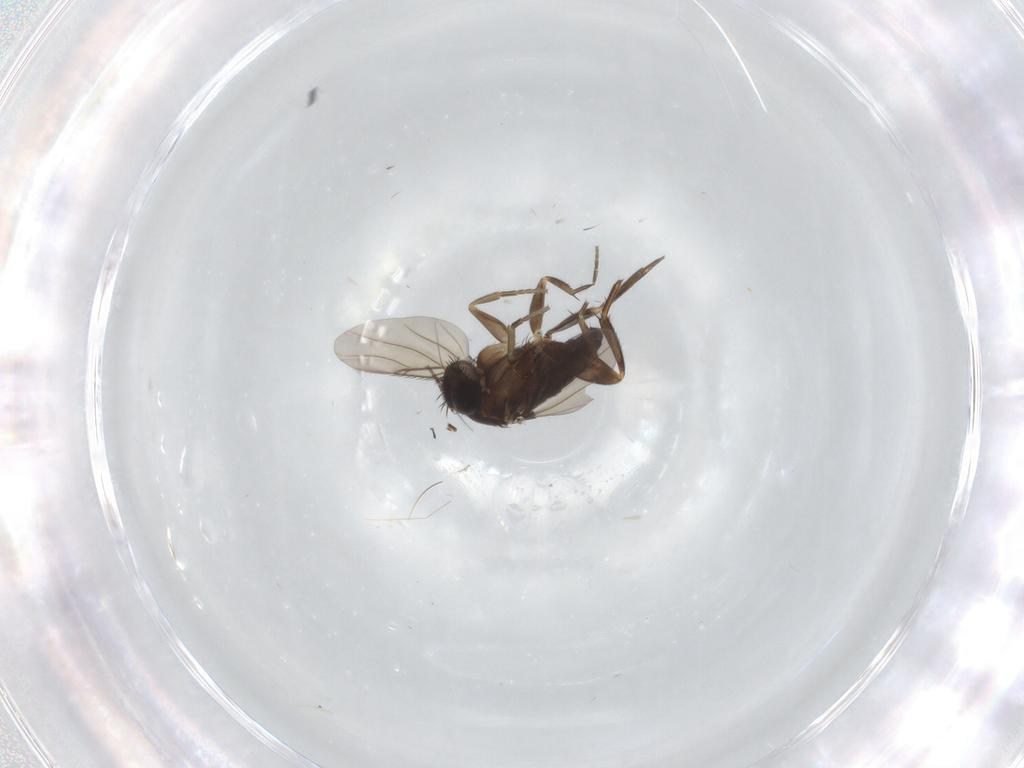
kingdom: Animalia
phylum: Arthropoda
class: Insecta
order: Diptera
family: Phoridae
